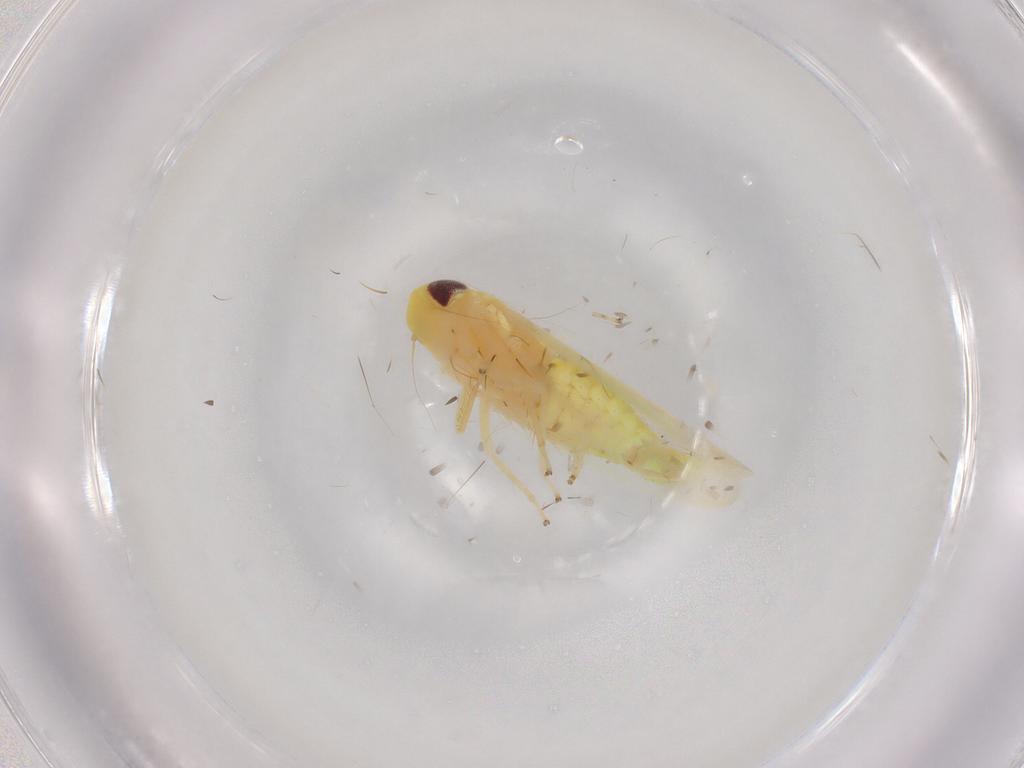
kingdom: Animalia
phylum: Arthropoda
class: Insecta
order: Hemiptera
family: Cicadellidae
